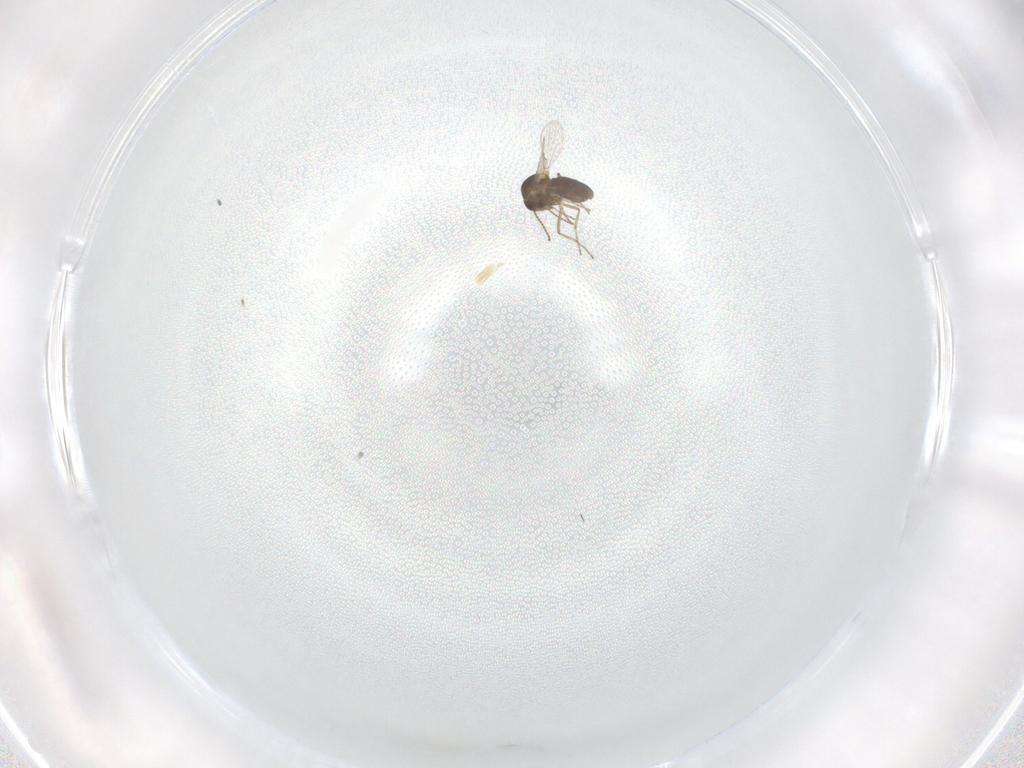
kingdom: Animalia
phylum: Arthropoda
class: Insecta
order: Diptera
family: Ceratopogonidae
